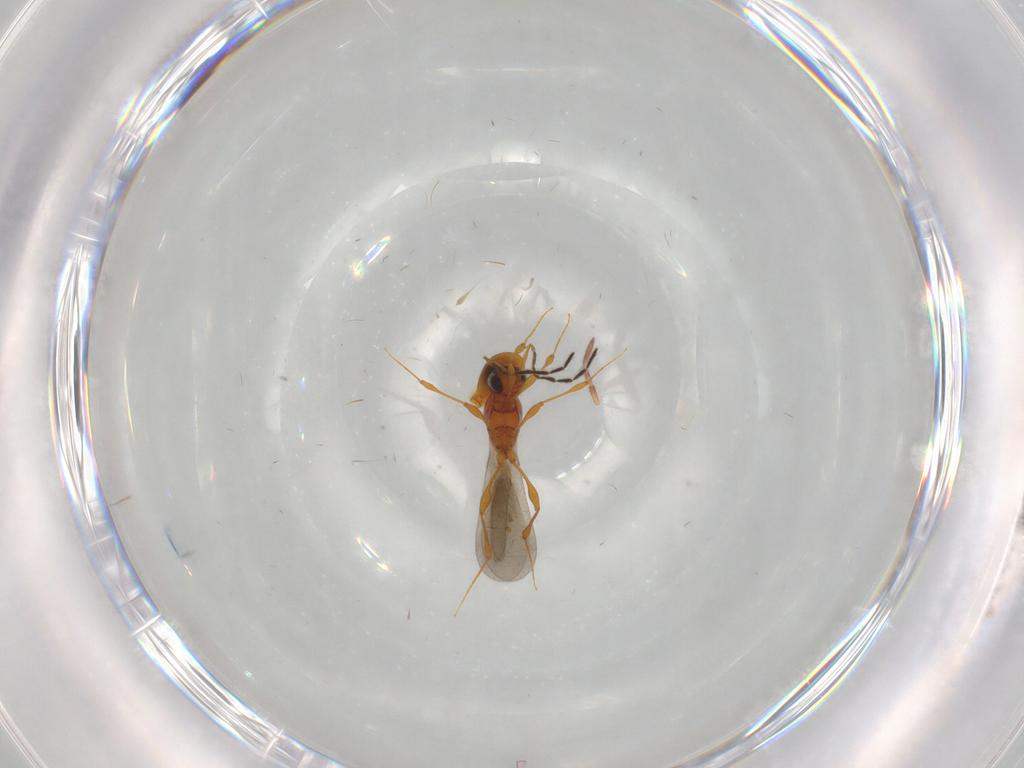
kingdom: Animalia
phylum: Arthropoda
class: Insecta
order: Hymenoptera
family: Platygastridae
